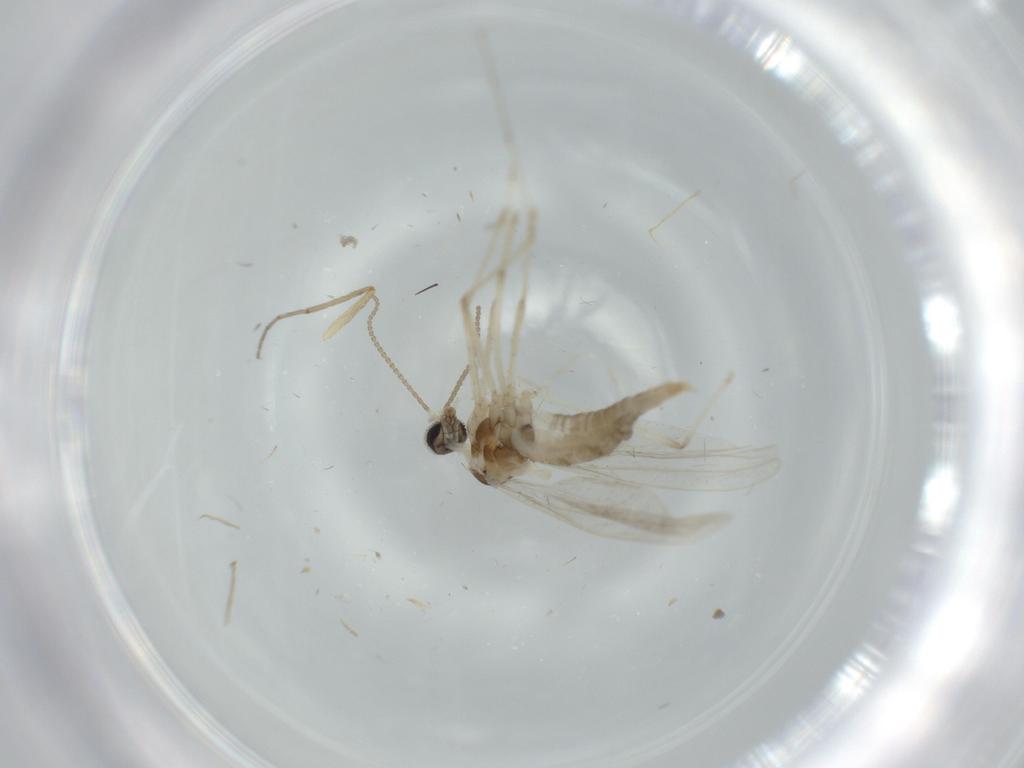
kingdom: Animalia
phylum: Arthropoda
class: Insecta
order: Diptera
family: Cecidomyiidae
